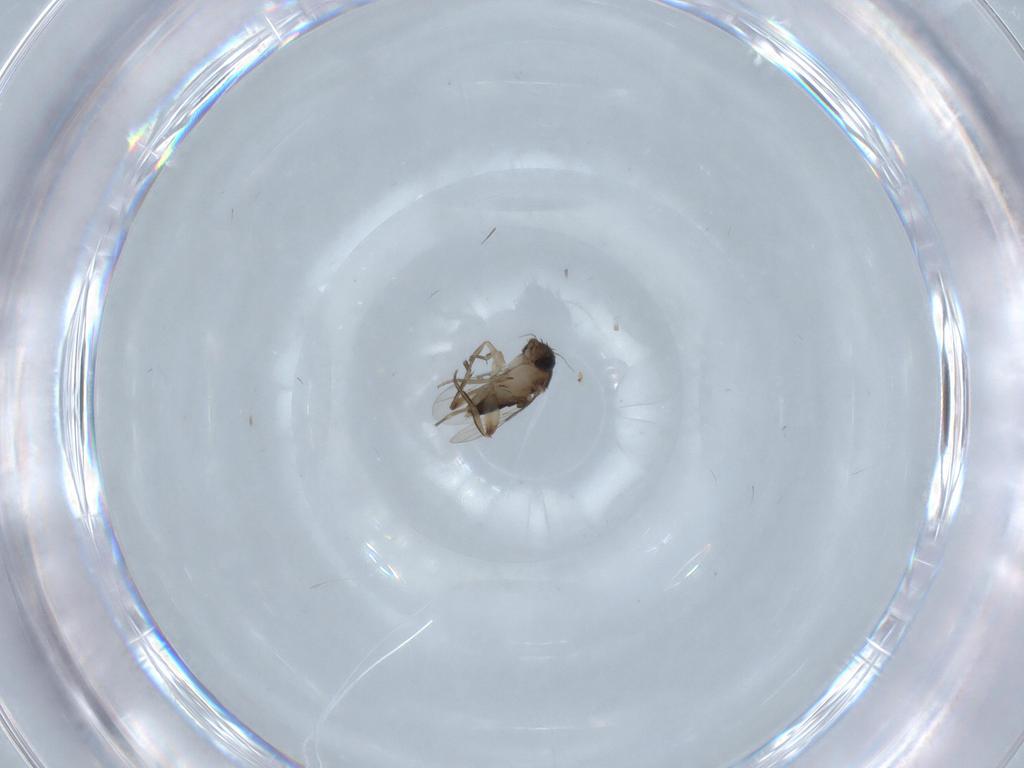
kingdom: Animalia
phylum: Arthropoda
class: Insecta
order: Diptera
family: Chironomidae
